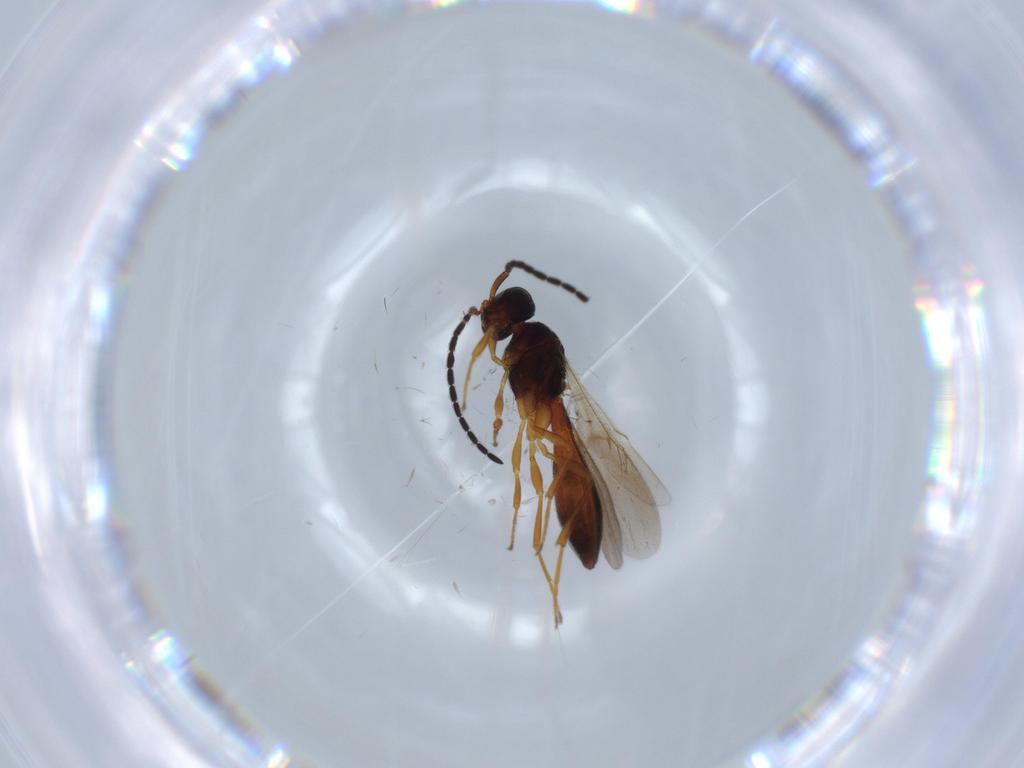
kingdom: Animalia
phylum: Arthropoda
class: Insecta
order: Hymenoptera
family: Scelionidae
